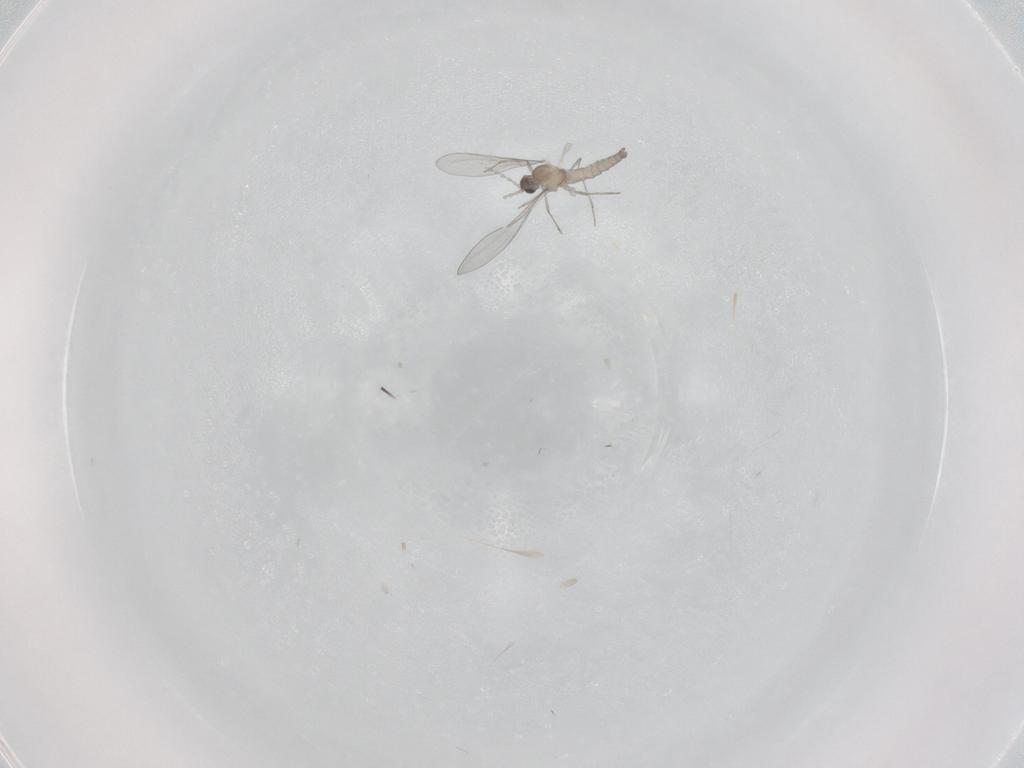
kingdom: Animalia
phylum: Arthropoda
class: Insecta
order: Diptera
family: Cecidomyiidae
